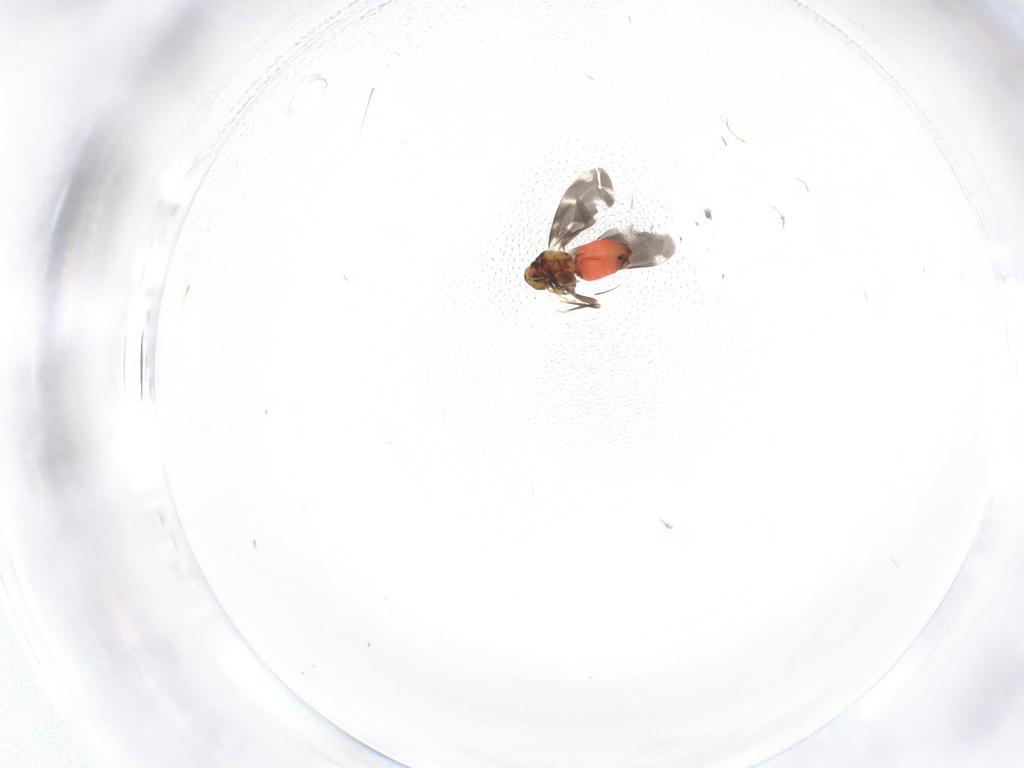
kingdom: Animalia
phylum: Arthropoda
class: Insecta
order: Hemiptera
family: Aleyrodidae
